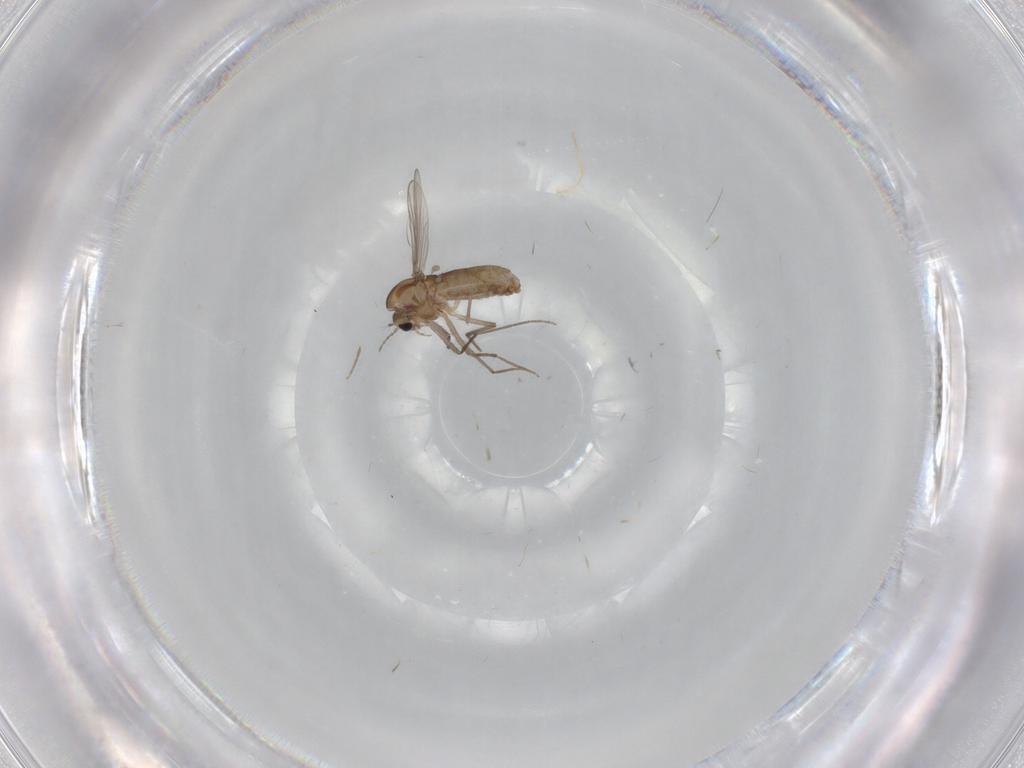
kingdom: Animalia
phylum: Arthropoda
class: Insecta
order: Diptera
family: Chironomidae
